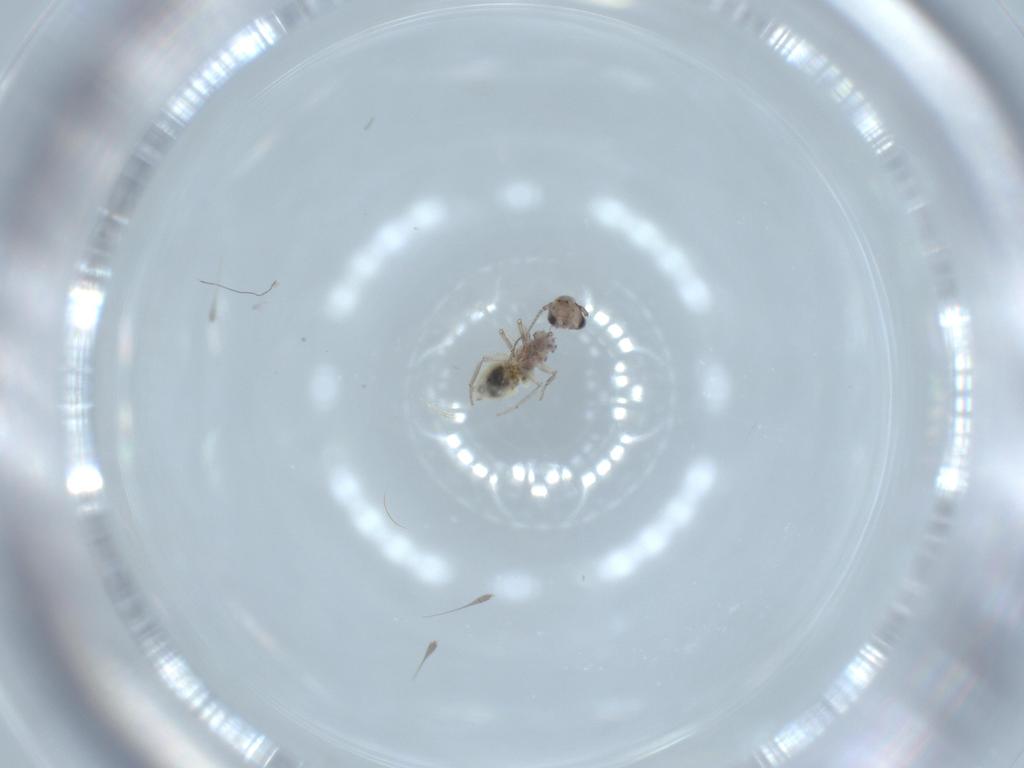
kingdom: Animalia
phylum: Arthropoda
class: Insecta
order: Psocodea
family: Lepidopsocidae
